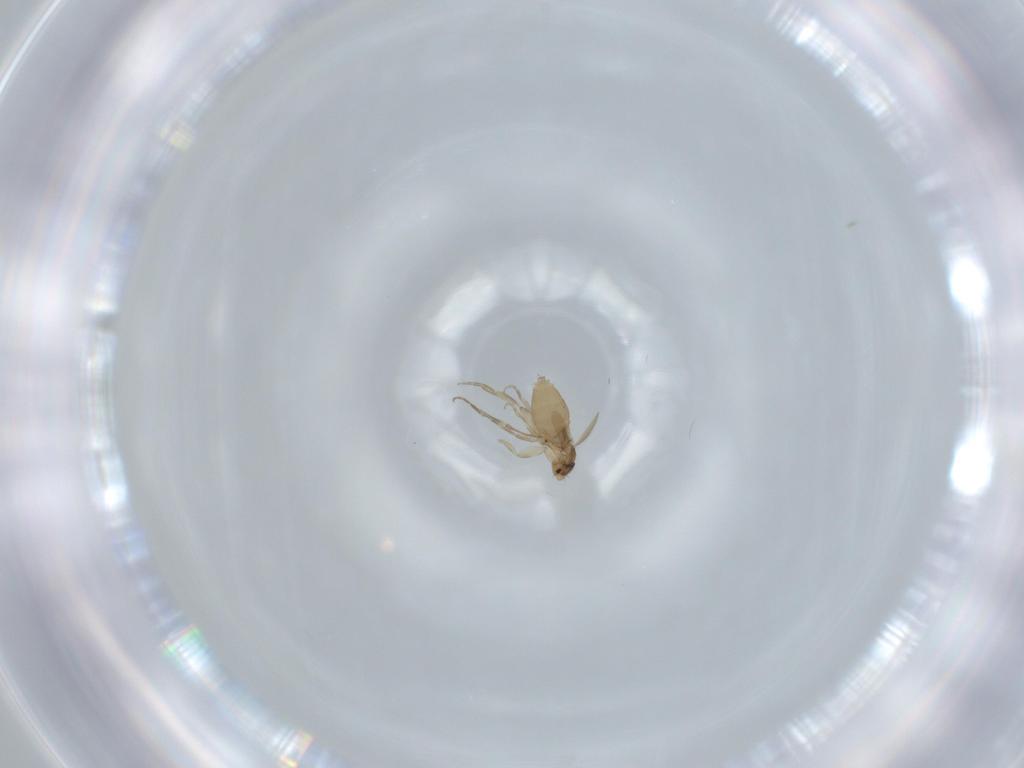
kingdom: Animalia
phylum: Arthropoda
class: Insecta
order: Diptera
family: Phoridae
